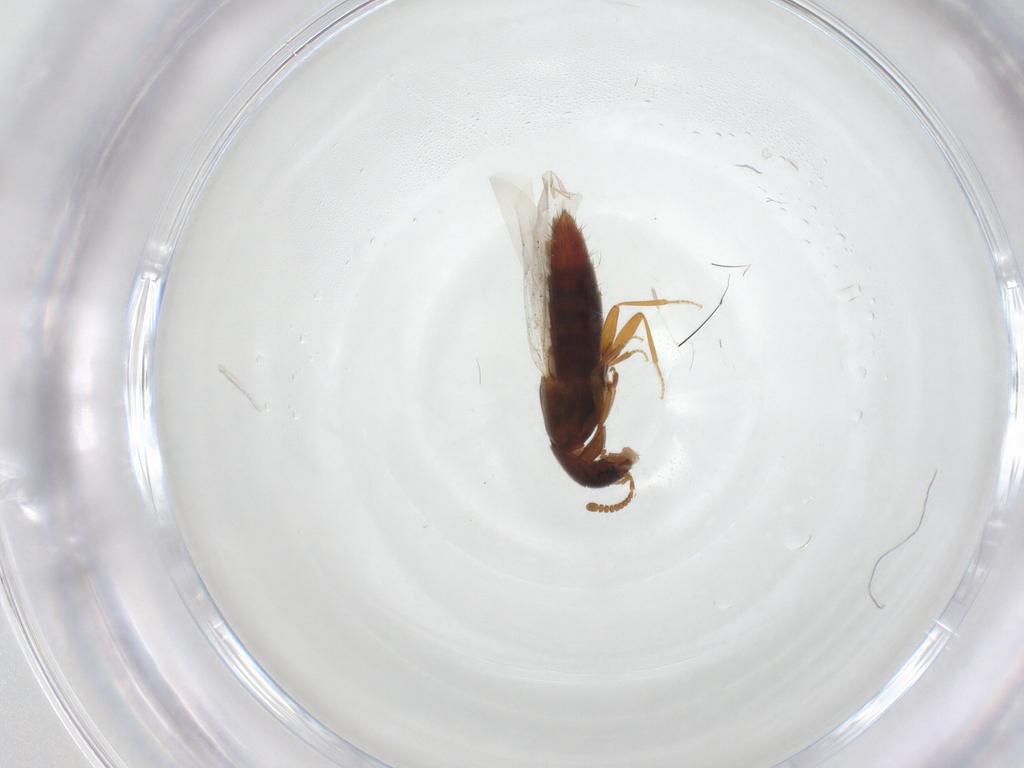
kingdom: Animalia
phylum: Arthropoda
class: Insecta
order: Coleoptera
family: Staphylinidae
